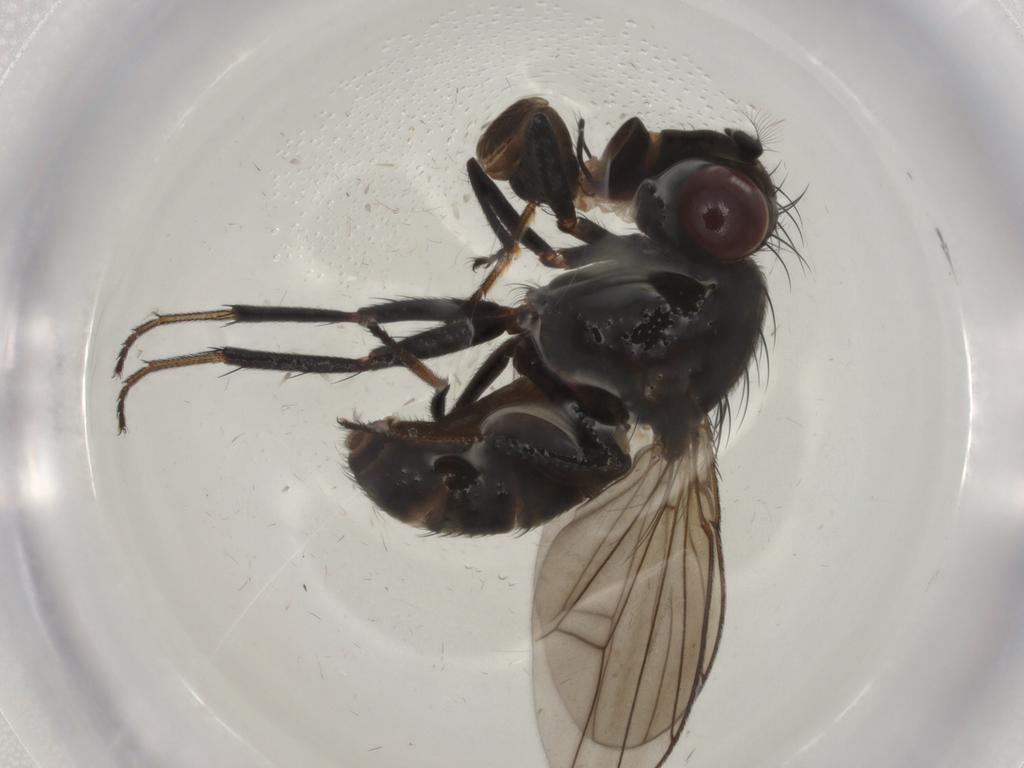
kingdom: Animalia
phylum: Arthropoda
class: Insecta
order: Diptera
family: Ephydridae
